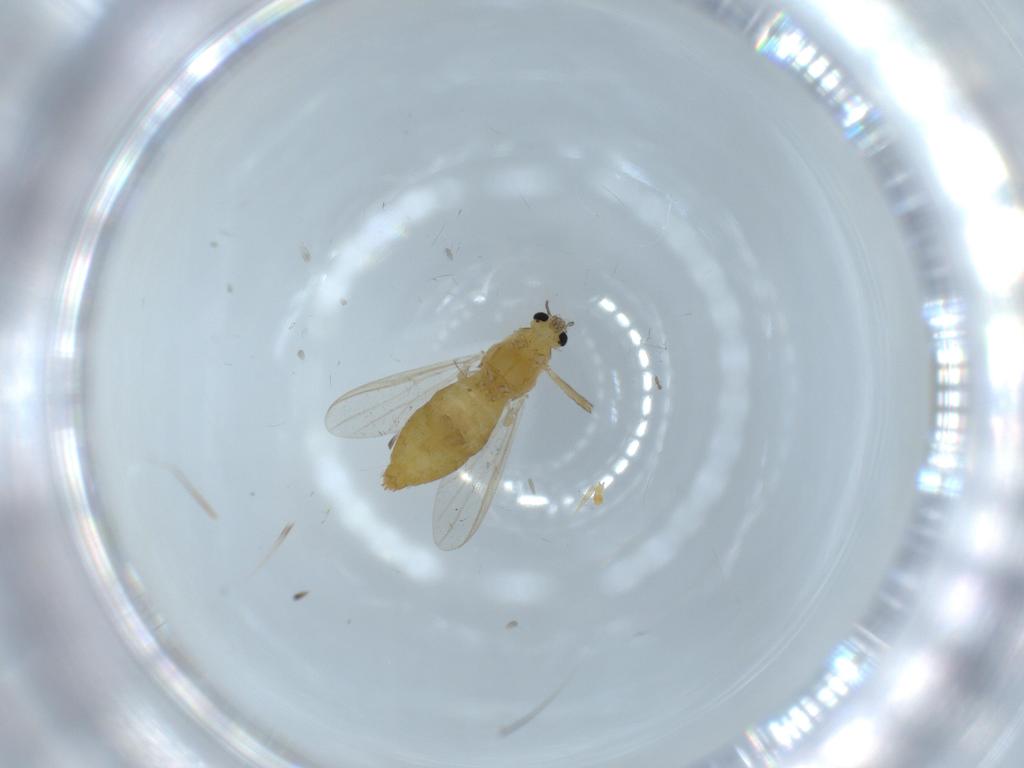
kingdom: Animalia
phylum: Arthropoda
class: Insecta
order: Diptera
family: Chironomidae
